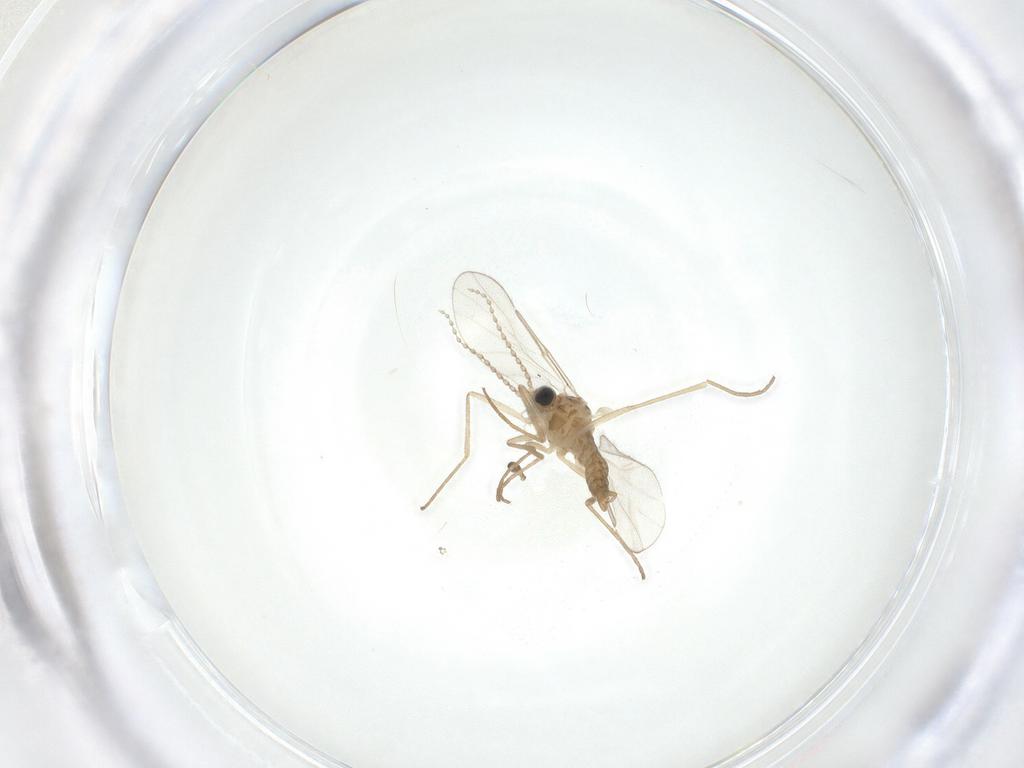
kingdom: Animalia
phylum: Arthropoda
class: Insecta
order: Diptera
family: Cecidomyiidae
